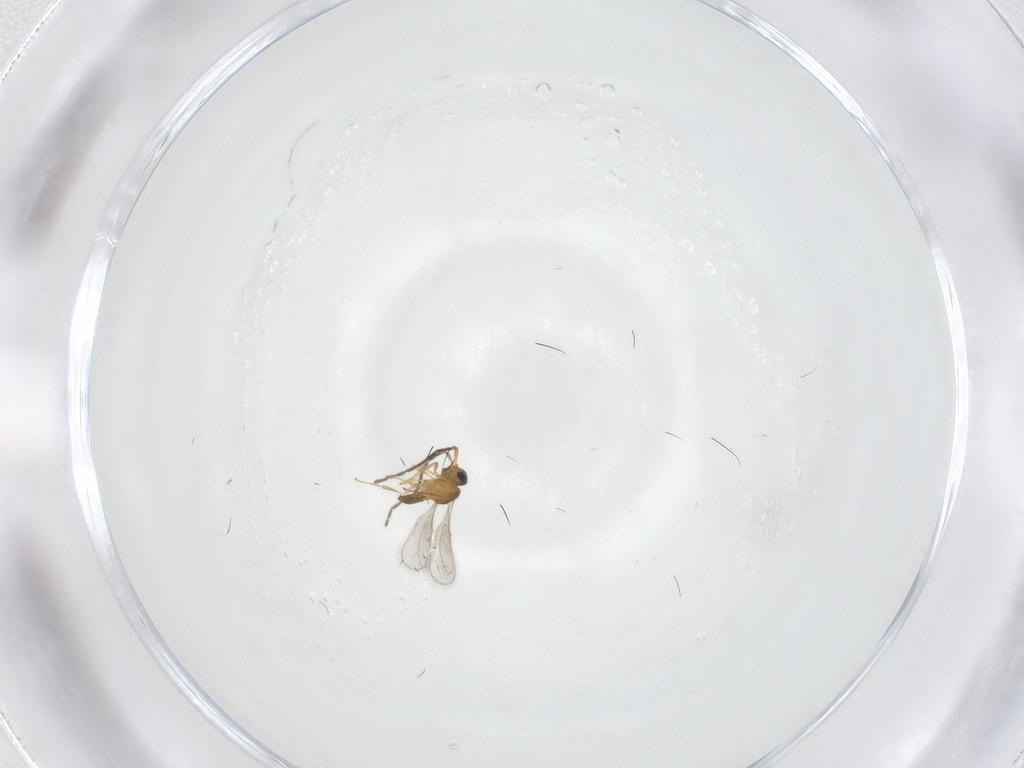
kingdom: Animalia
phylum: Arthropoda
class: Insecta
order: Hymenoptera
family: Scelionidae
